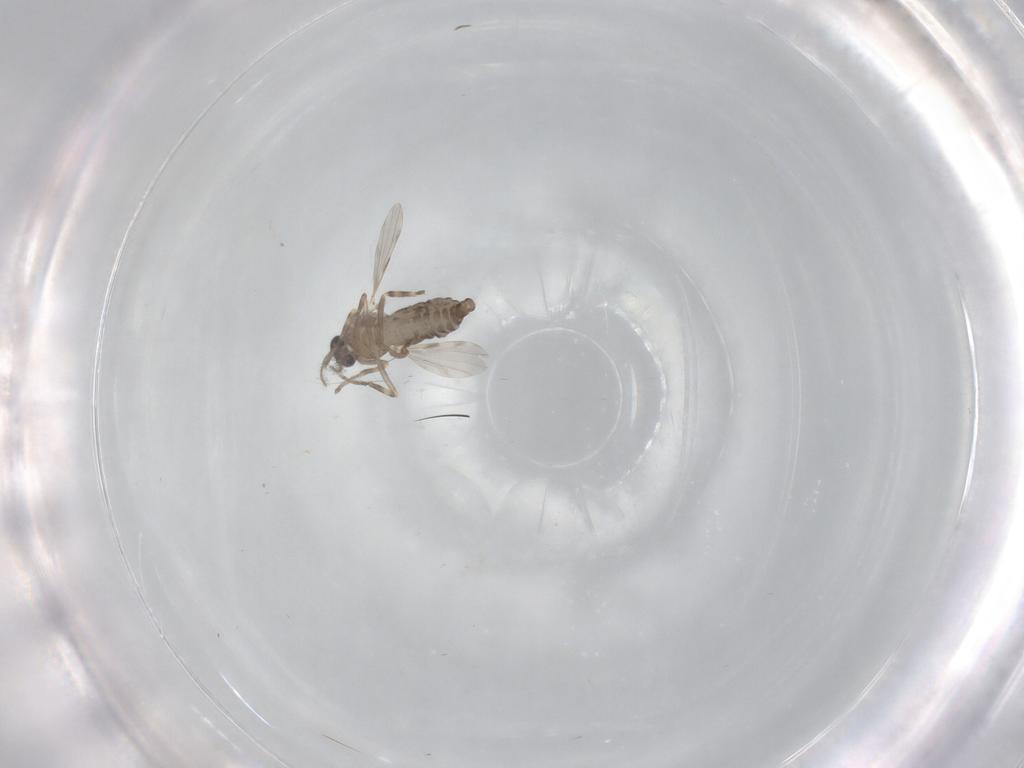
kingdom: Animalia
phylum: Arthropoda
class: Insecta
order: Diptera
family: Ceratopogonidae
